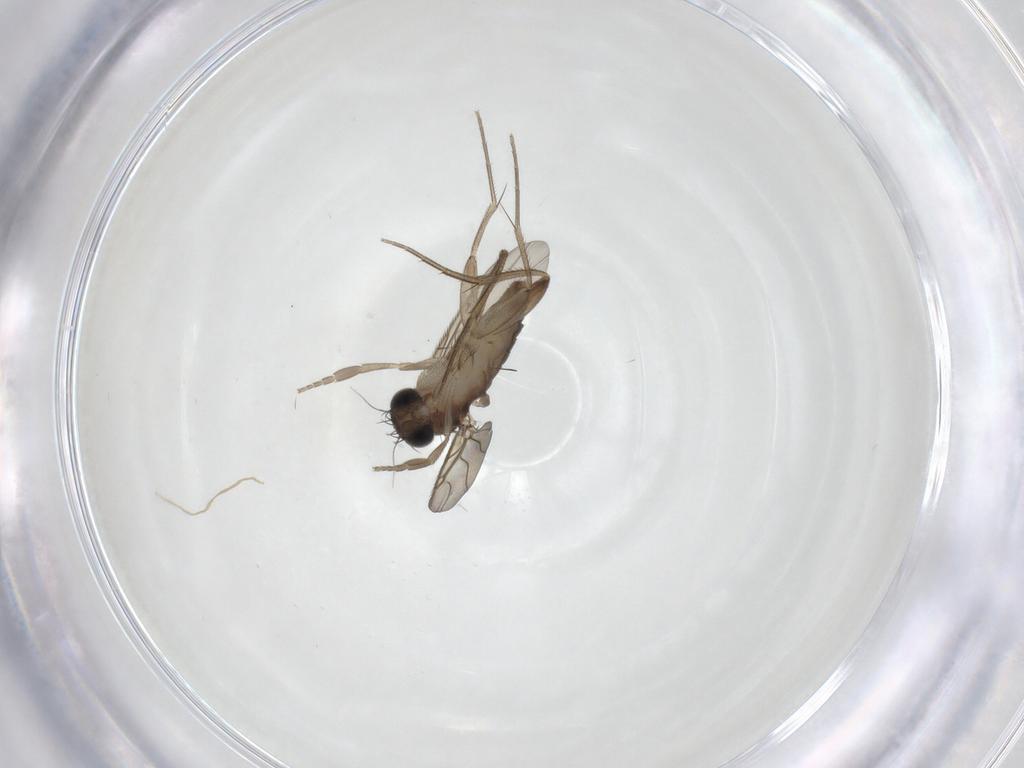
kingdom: Animalia
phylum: Arthropoda
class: Insecta
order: Diptera
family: Phoridae
